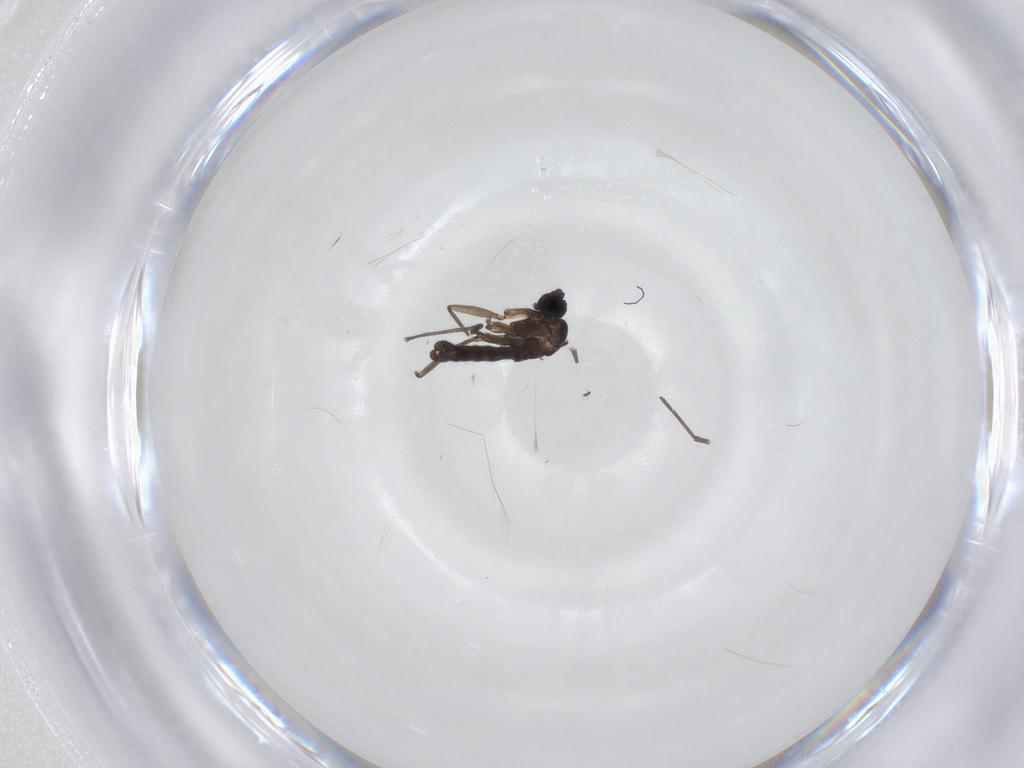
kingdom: Animalia
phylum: Arthropoda
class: Insecta
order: Diptera
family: Sciaridae
